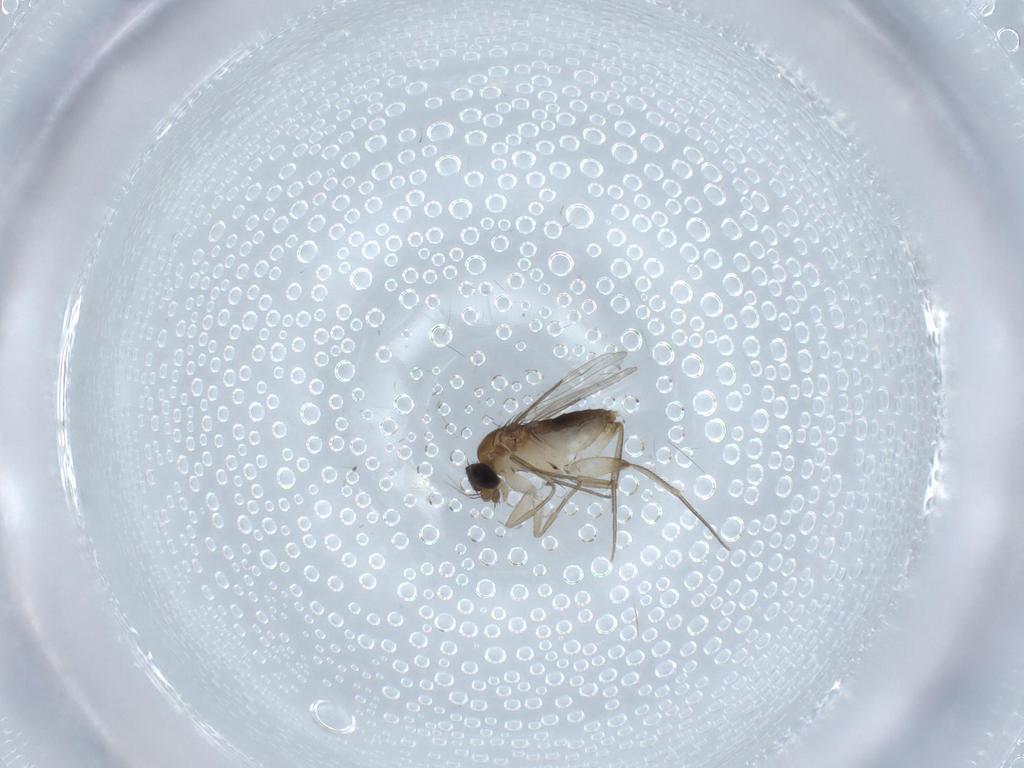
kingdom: Animalia
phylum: Arthropoda
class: Insecta
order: Diptera
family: Phoridae
